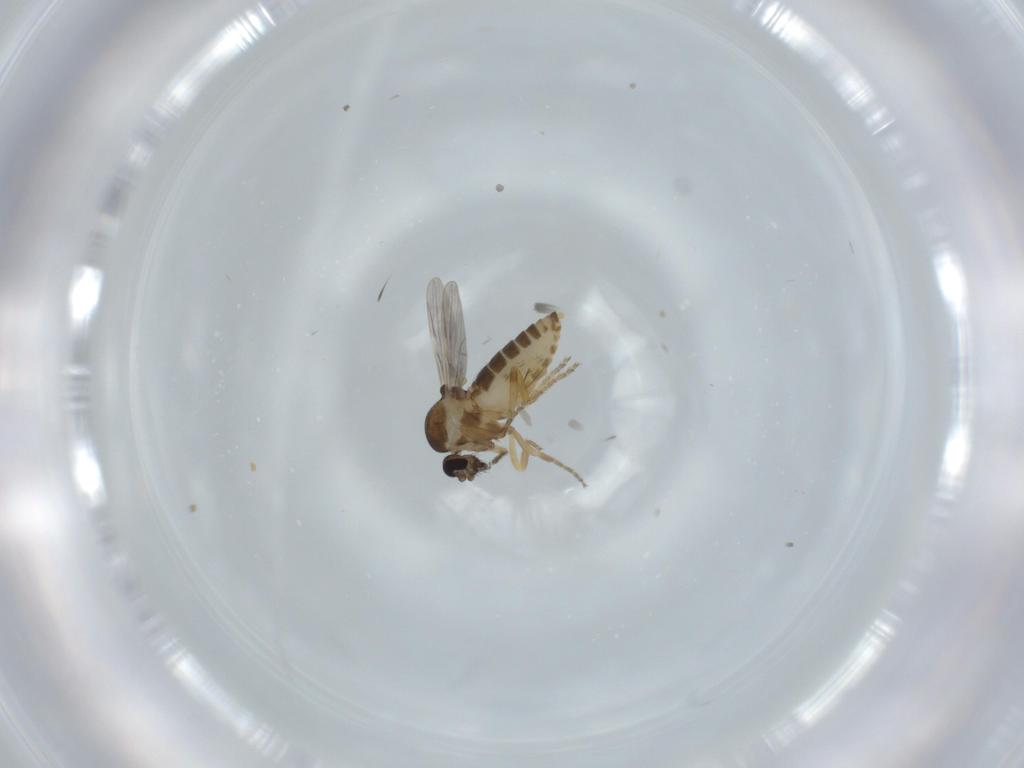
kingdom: Animalia
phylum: Arthropoda
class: Insecta
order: Diptera
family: Ceratopogonidae
